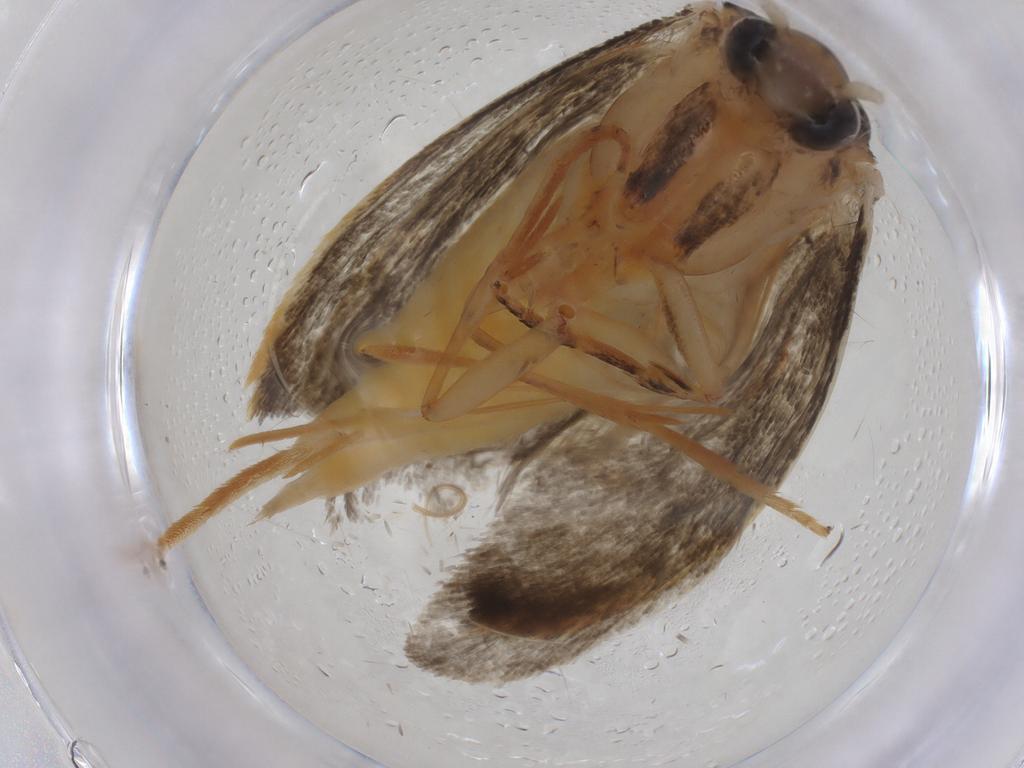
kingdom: Animalia
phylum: Arthropoda
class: Insecta
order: Lepidoptera
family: Tineidae
